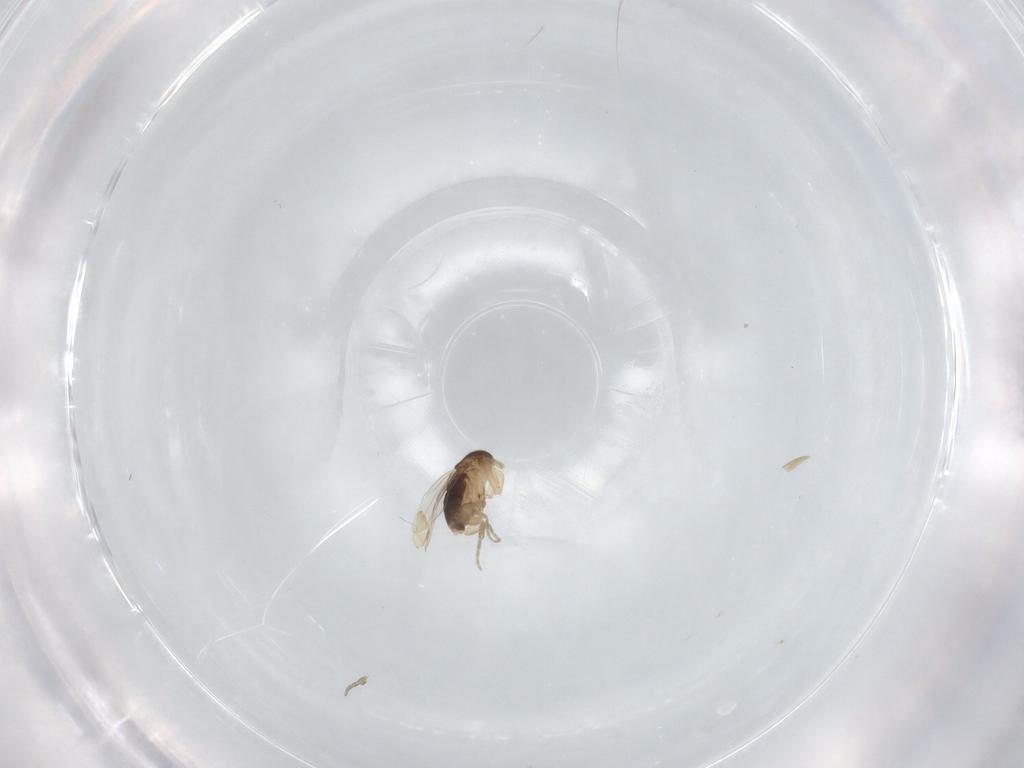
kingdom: Animalia
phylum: Arthropoda
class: Insecta
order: Diptera
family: Phoridae
